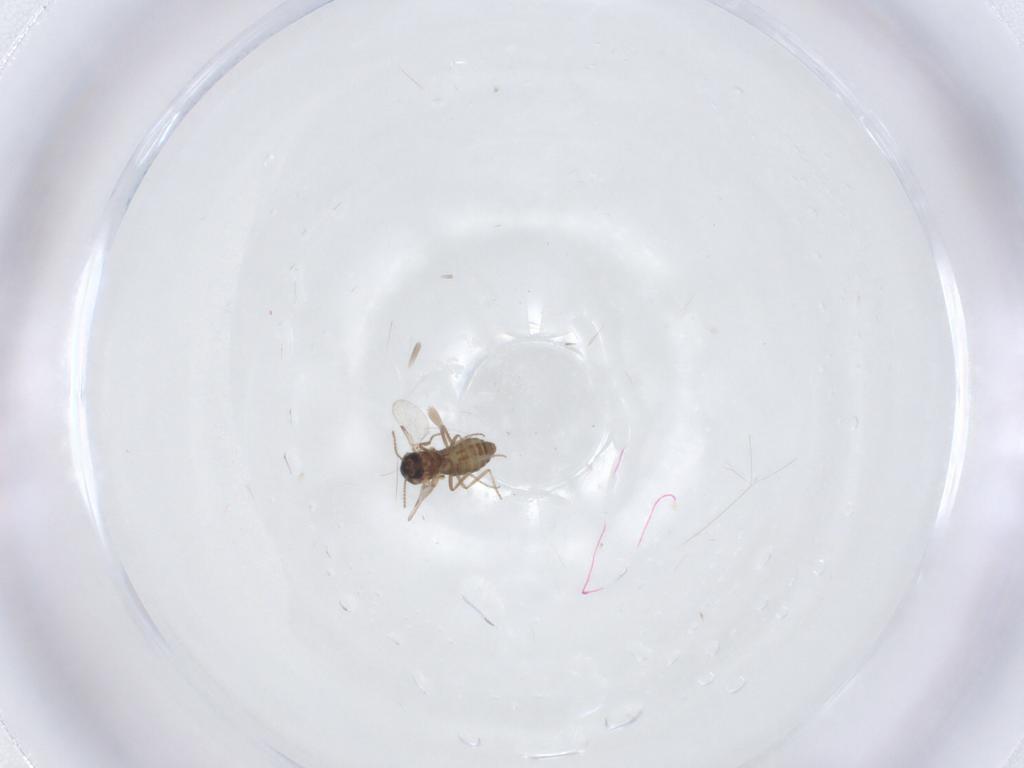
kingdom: Animalia
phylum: Arthropoda
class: Insecta
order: Diptera
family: Ceratopogonidae
